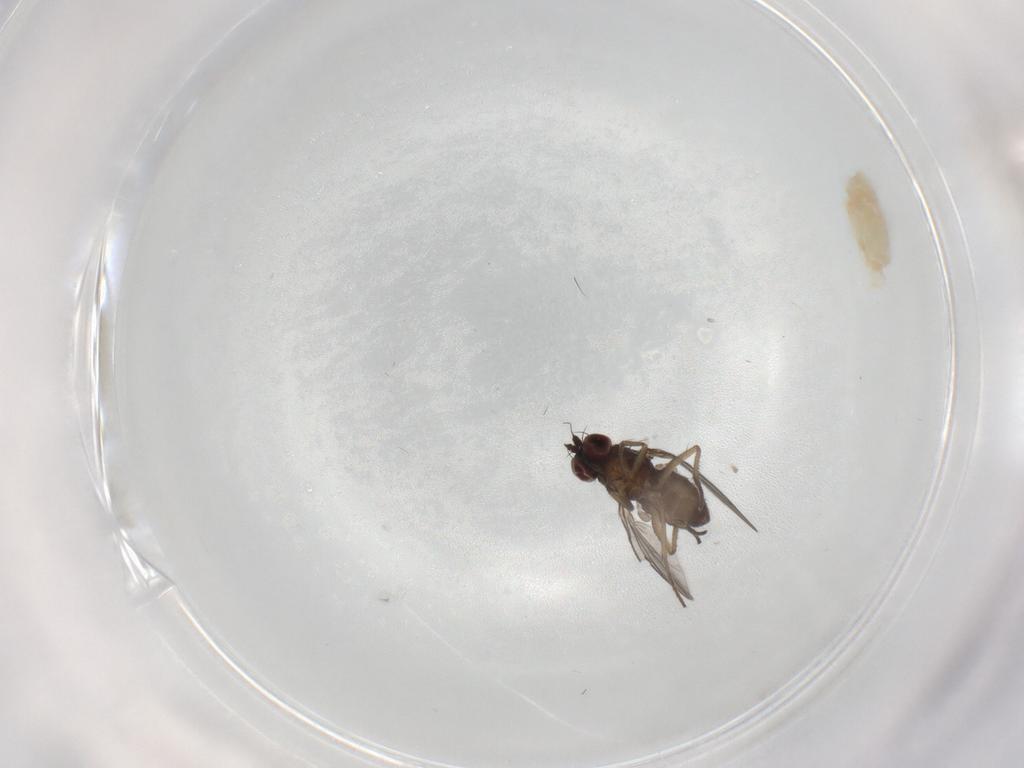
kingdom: Animalia
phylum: Arthropoda
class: Insecta
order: Diptera
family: Dolichopodidae
